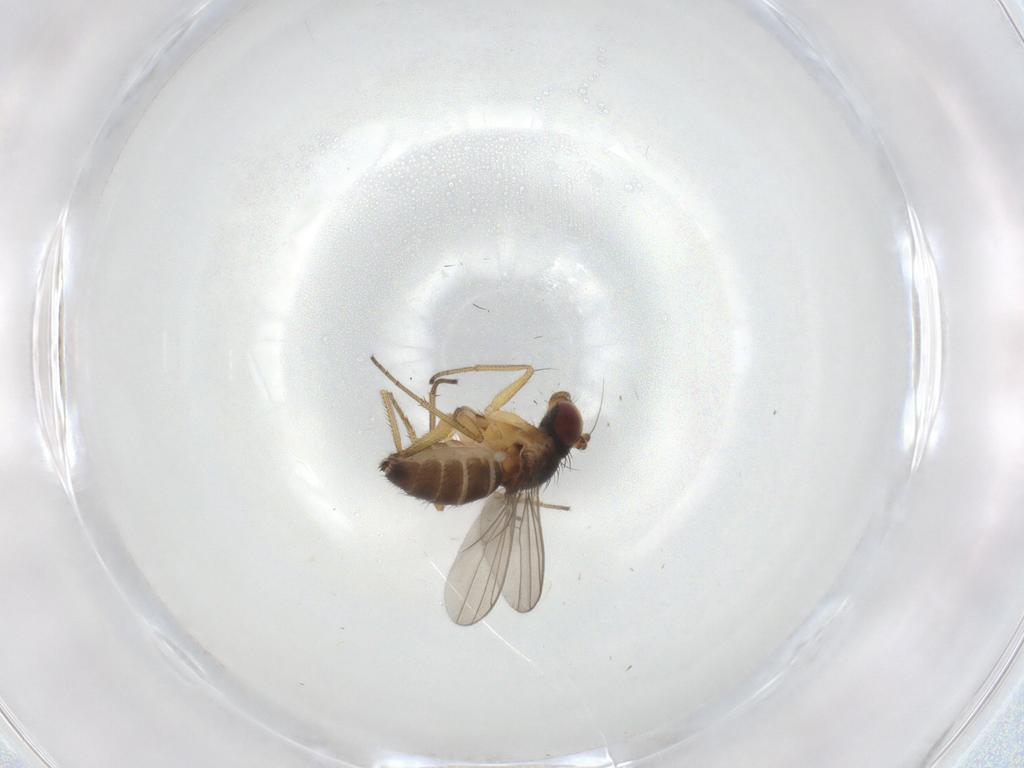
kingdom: Animalia
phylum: Arthropoda
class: Insecta
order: Diptera
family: Dolichopodidae
